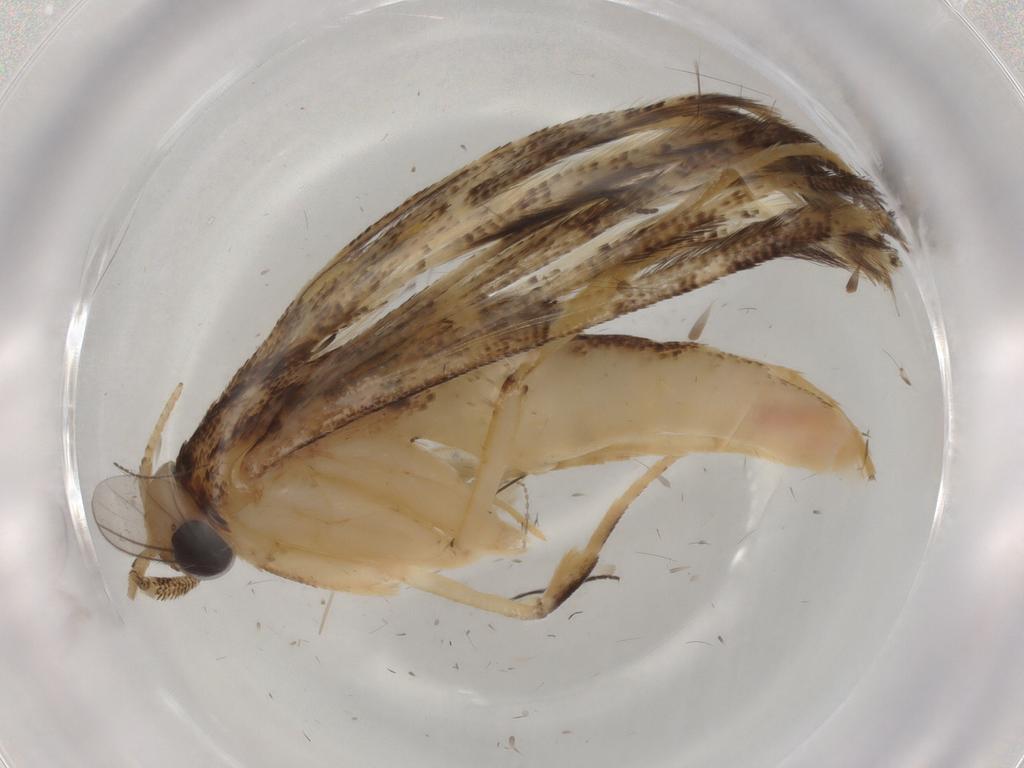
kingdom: Animalia
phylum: Arthropoda
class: Insecta
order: Lepidoptera
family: Alucitidae
